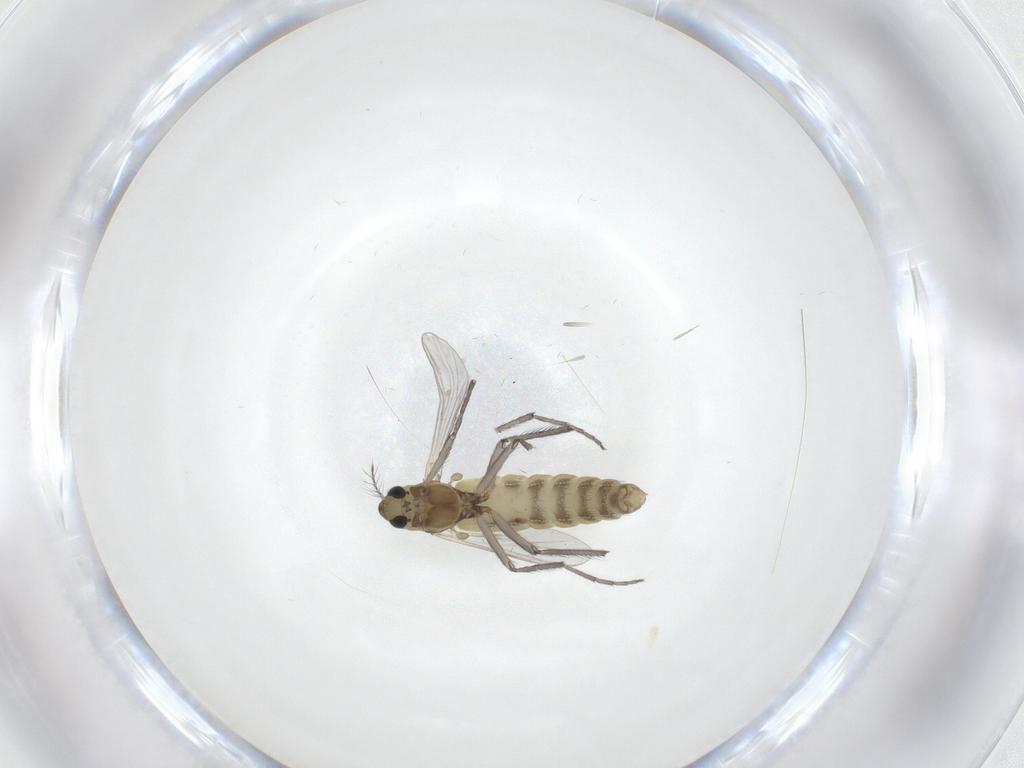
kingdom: Animalia
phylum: Arthropoda
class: Insecta
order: Diptera
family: Chironomidae
